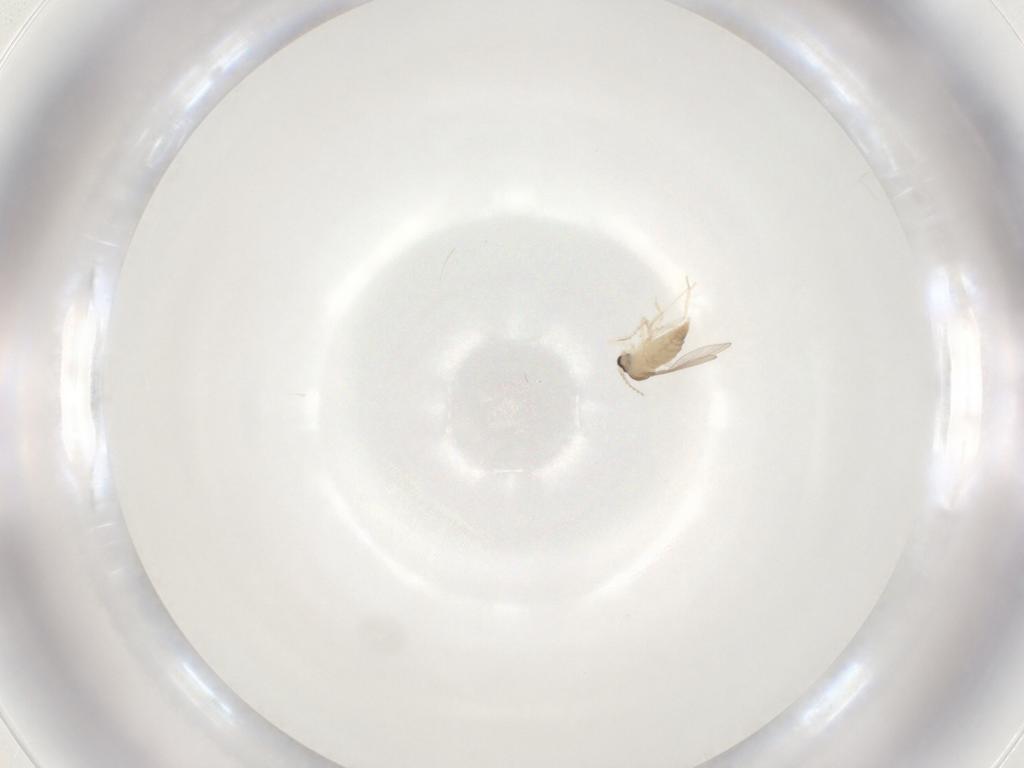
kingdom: Animalia
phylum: Arthropoda
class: Insecta
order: Diptera
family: Cecidomyiidae
